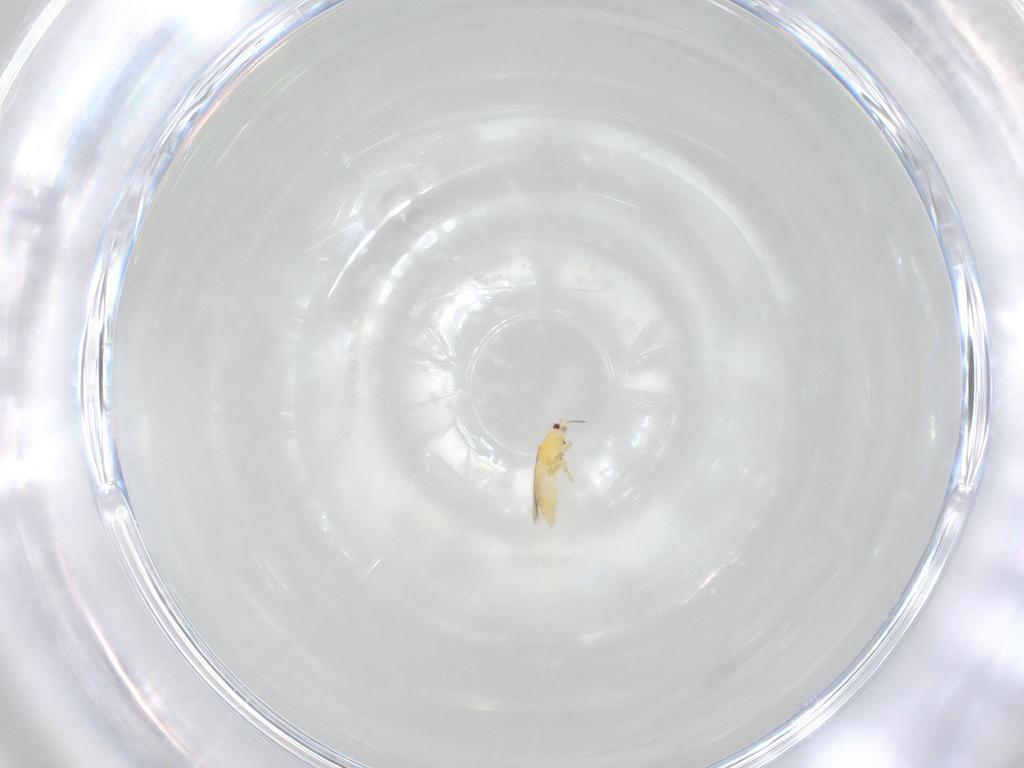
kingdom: Animalia
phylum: Arthropoda
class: Insecta
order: Thysanoptera
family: Thripidae
